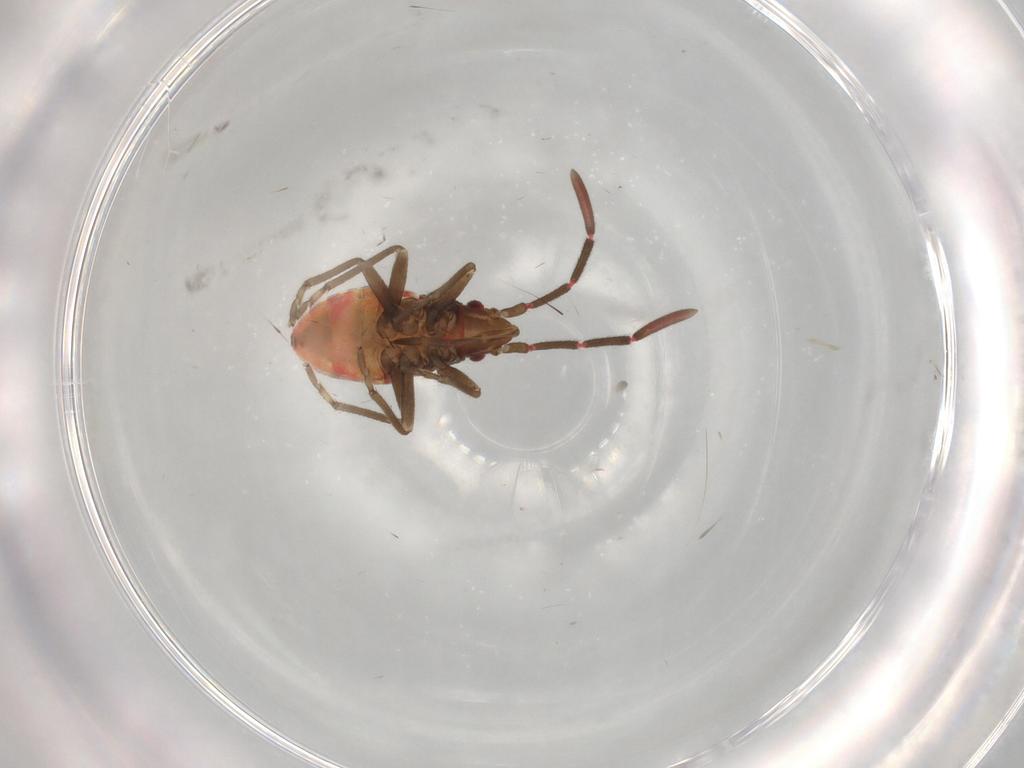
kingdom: Animalia
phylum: Arthropoda
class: Insecta
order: Hemiptera
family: Rhyparochromidae
